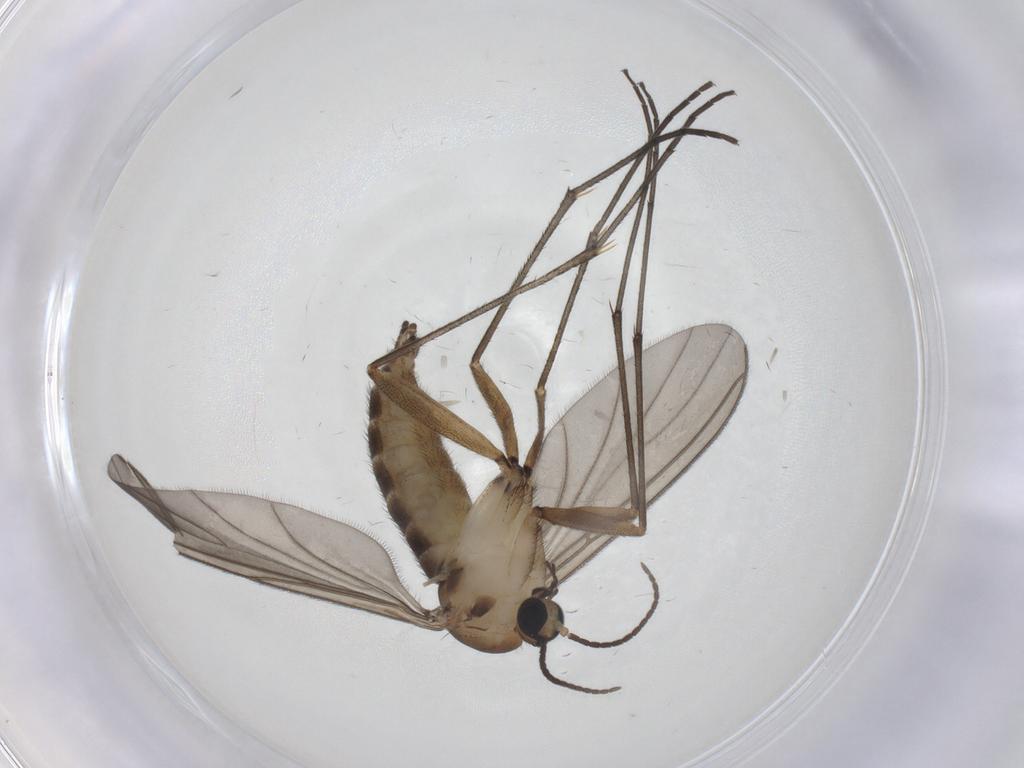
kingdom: Animalia
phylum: Arthropoda
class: Insecta
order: Diptera
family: Sciaridae
